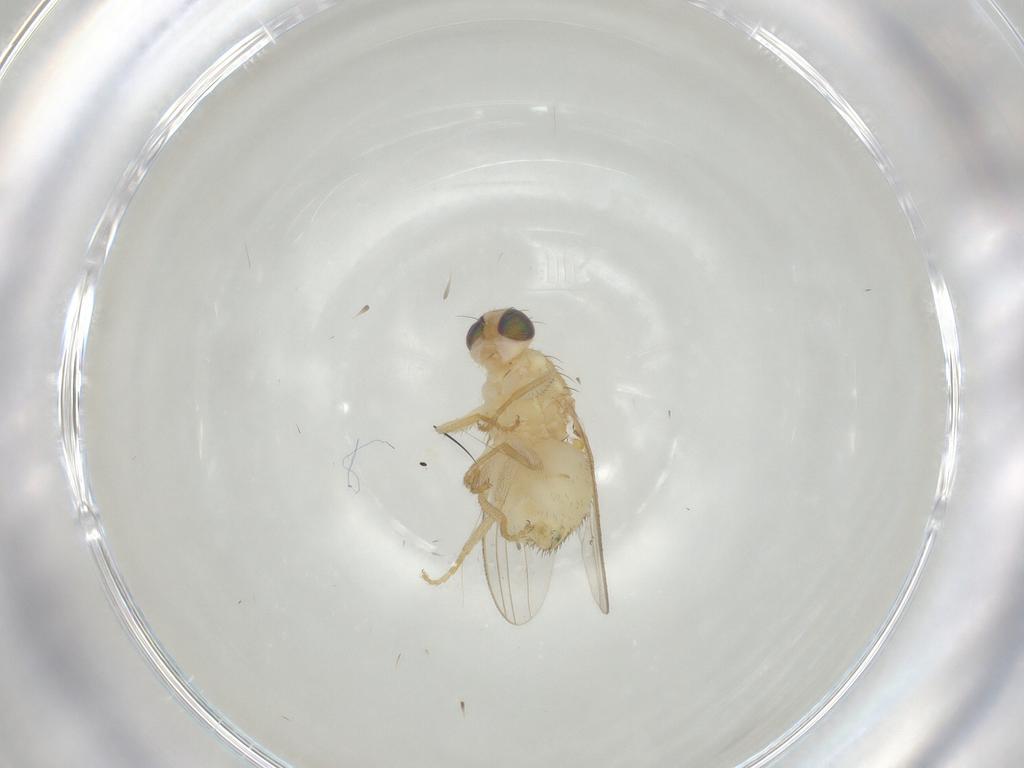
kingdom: Animalia
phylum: Arthropoda
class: Insecta
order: Diptera
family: Chyromyidae
